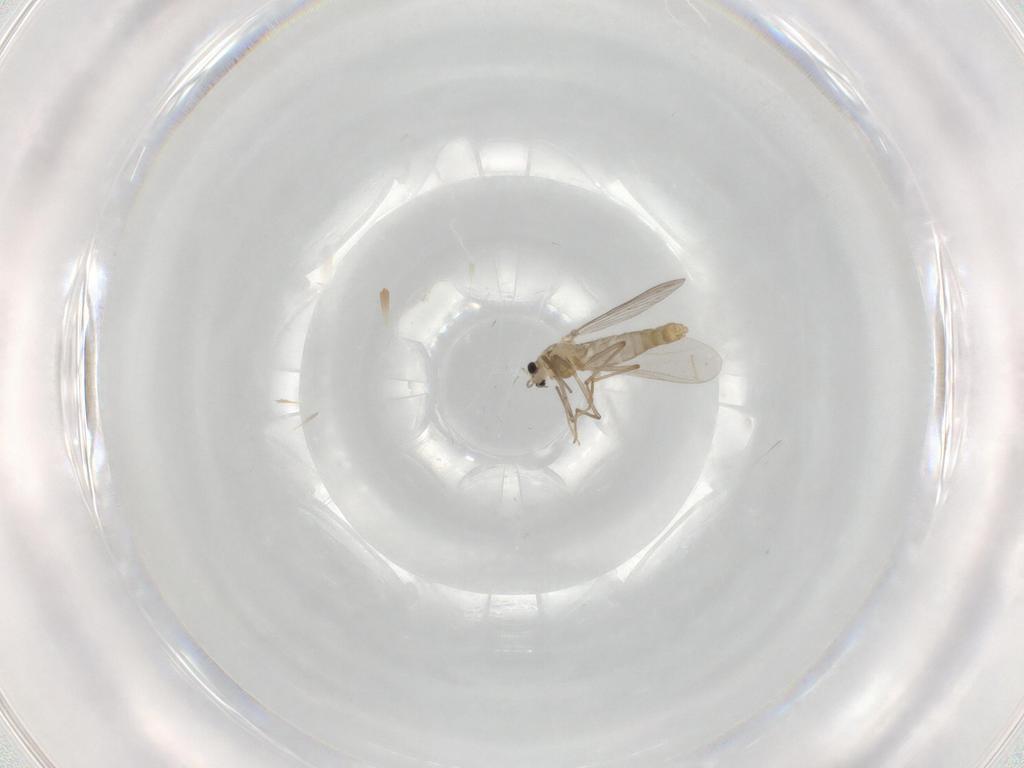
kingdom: Animalia
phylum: Arthropoda
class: Insecta
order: Diptera
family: Chironomidae
